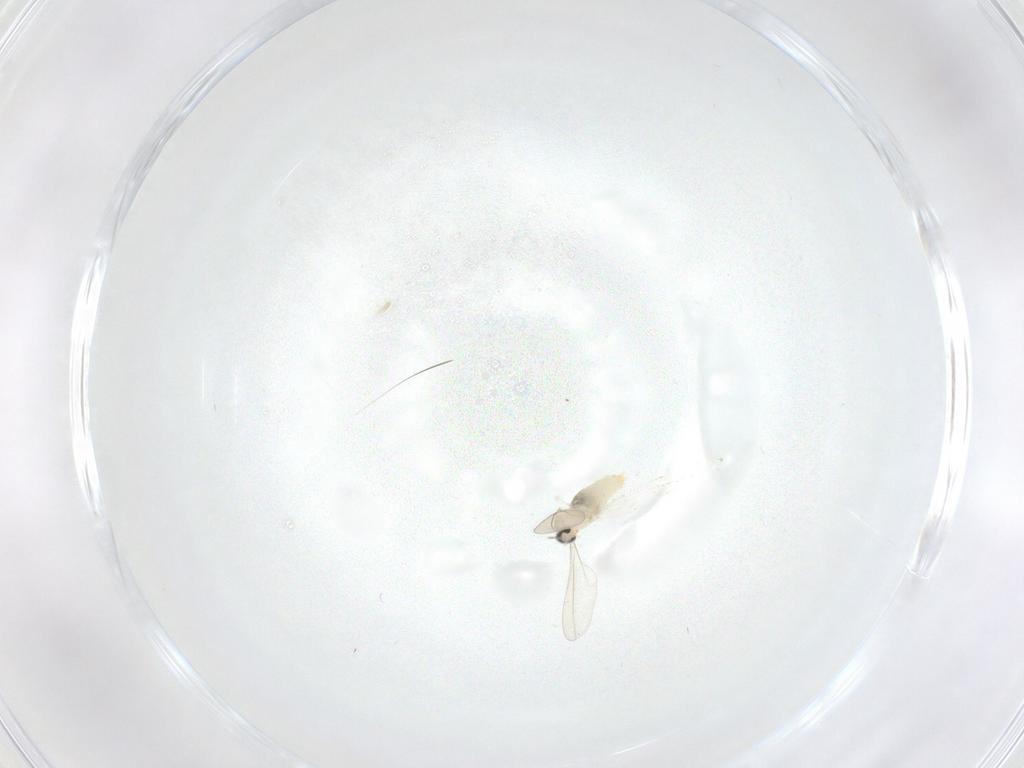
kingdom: Animalia
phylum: Arthropoda
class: Insecta
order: Diptera
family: Cecidomyiidae
